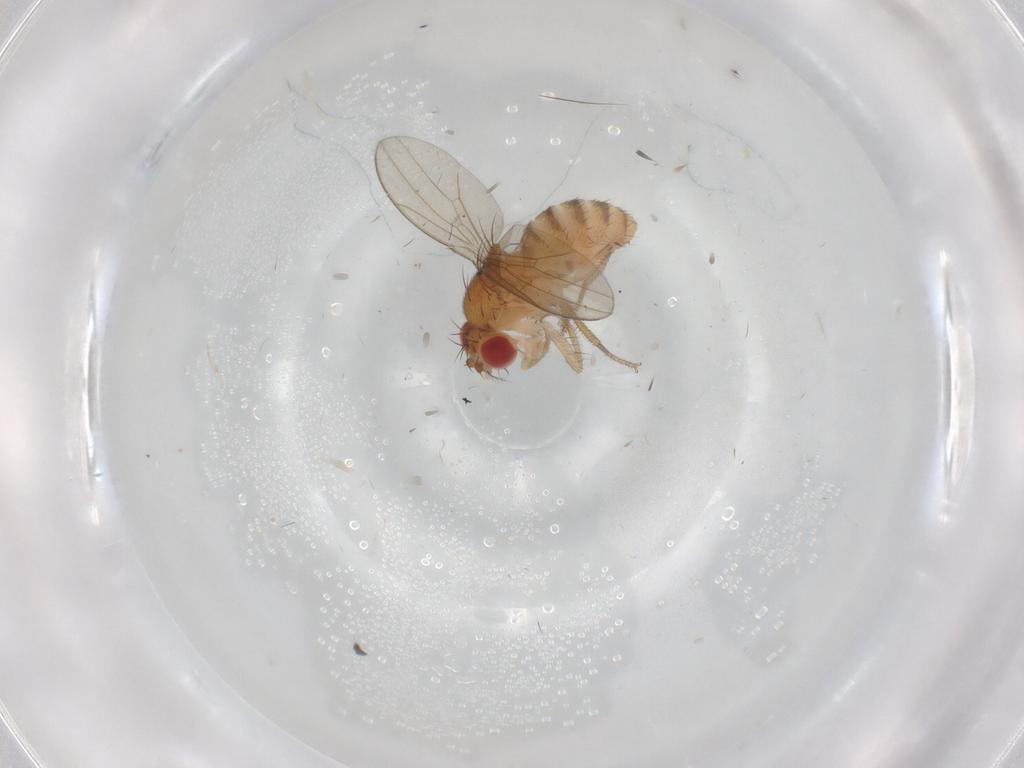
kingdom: Animalia
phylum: Arthropoda
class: Insecta
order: Diptera
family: Drosophilidae
